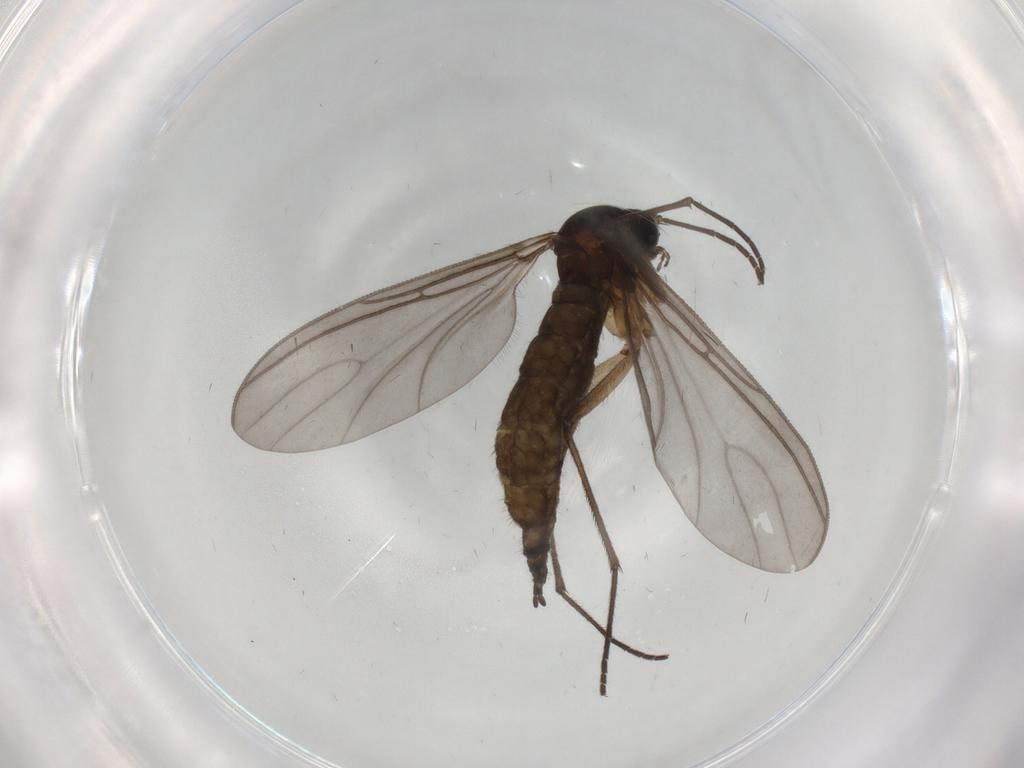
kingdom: Animalia
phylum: Arthropoda
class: Insecta
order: Diptera
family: Sciaridae
